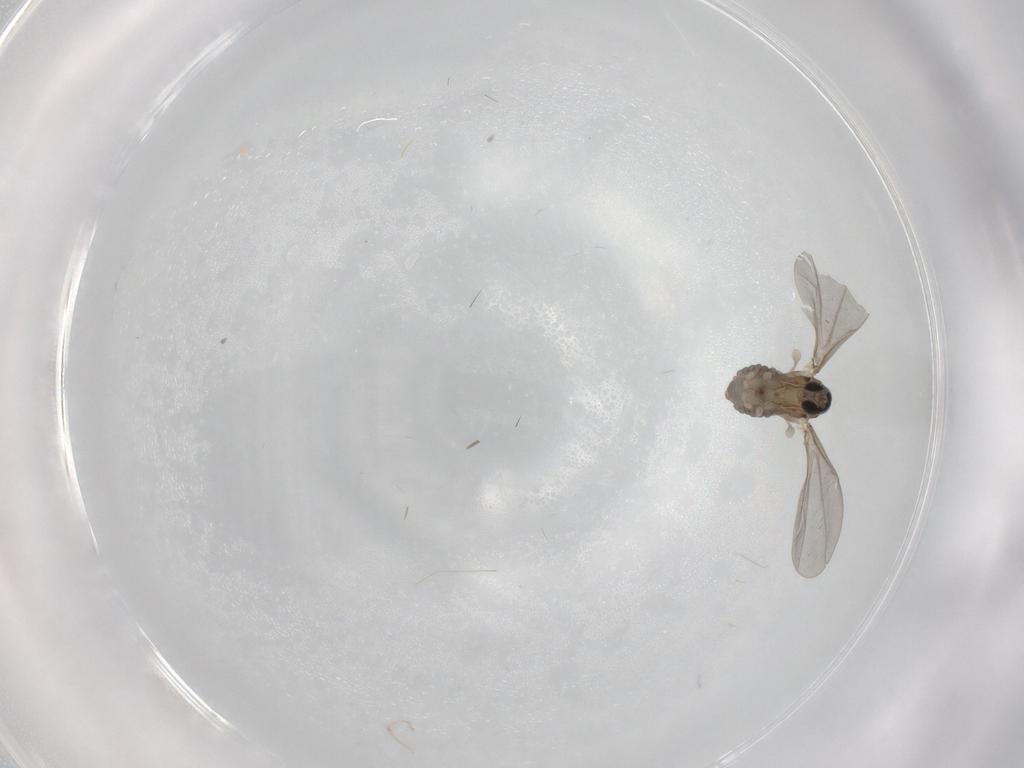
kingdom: Animalia
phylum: Arthropoda
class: Insecta
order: Diptera
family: Cecidomyiidae
